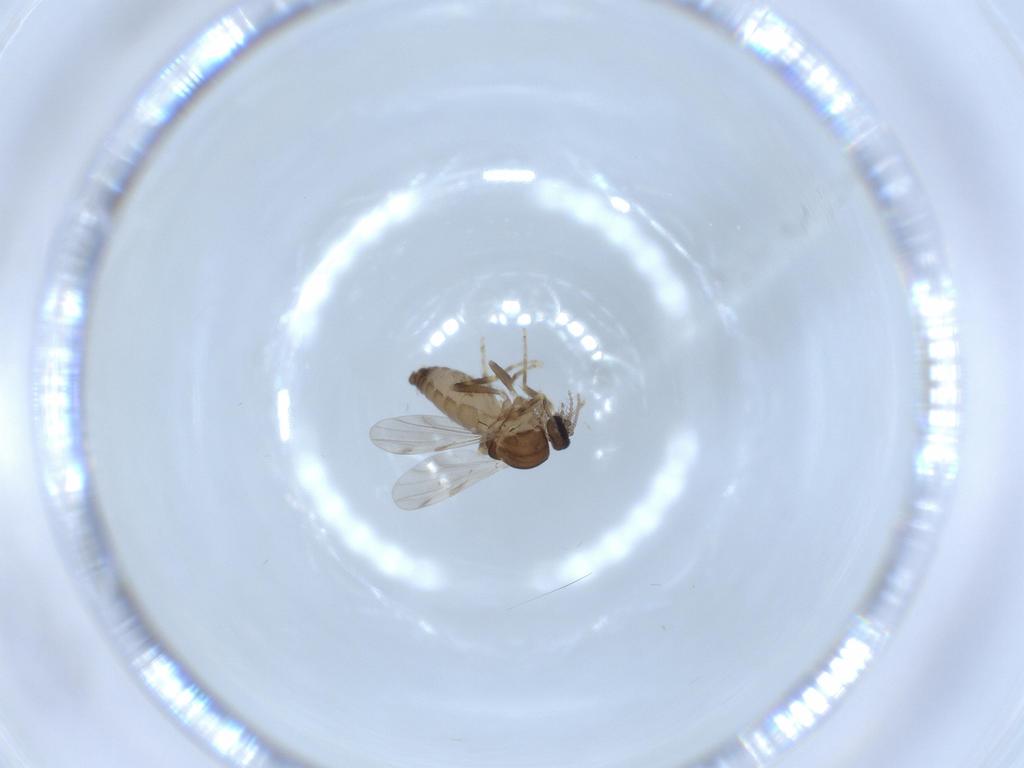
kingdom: Animalia
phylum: Arthropoda
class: Insecta
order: Diptera
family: Ceratopogonidae
